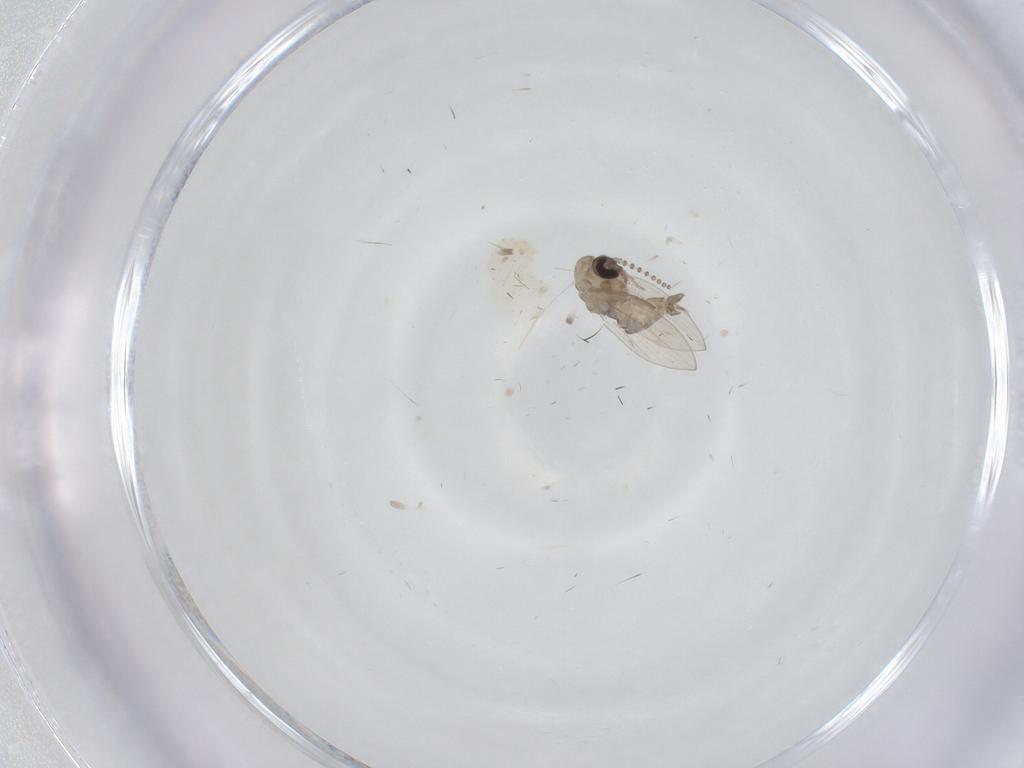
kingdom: Animalia
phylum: Arthropoda
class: Insecta
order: Diptera
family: Psychodidae
